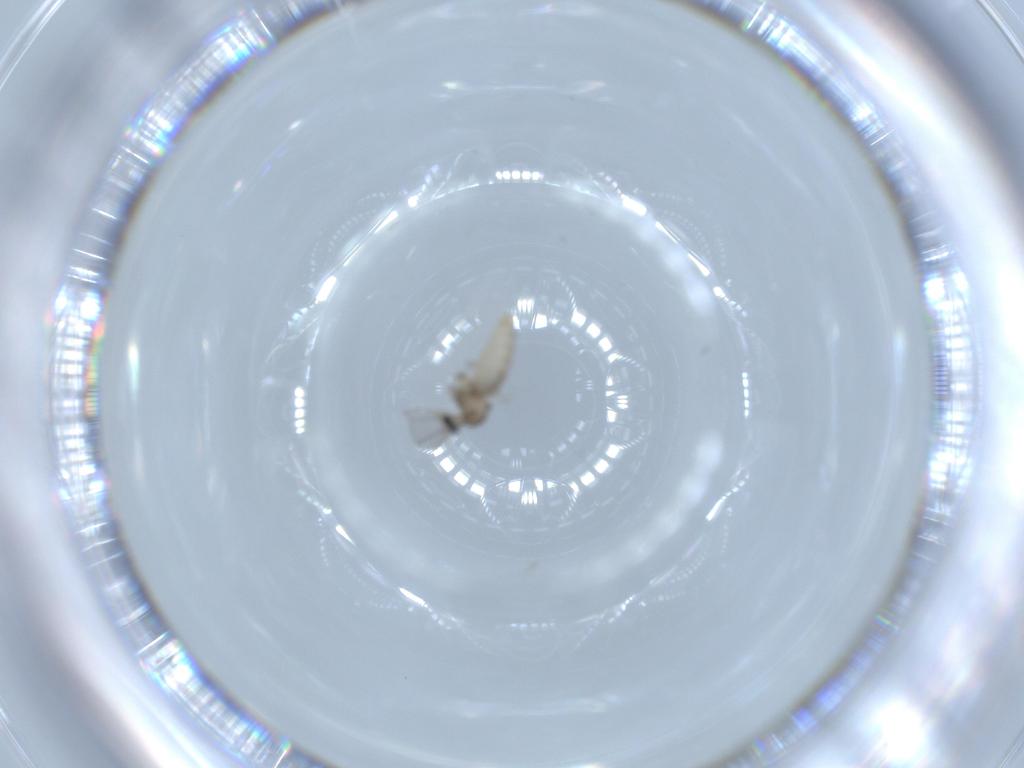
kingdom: Animalia
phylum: Arthropoda
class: Insecta
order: Diptera
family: Cecidomyiidae
